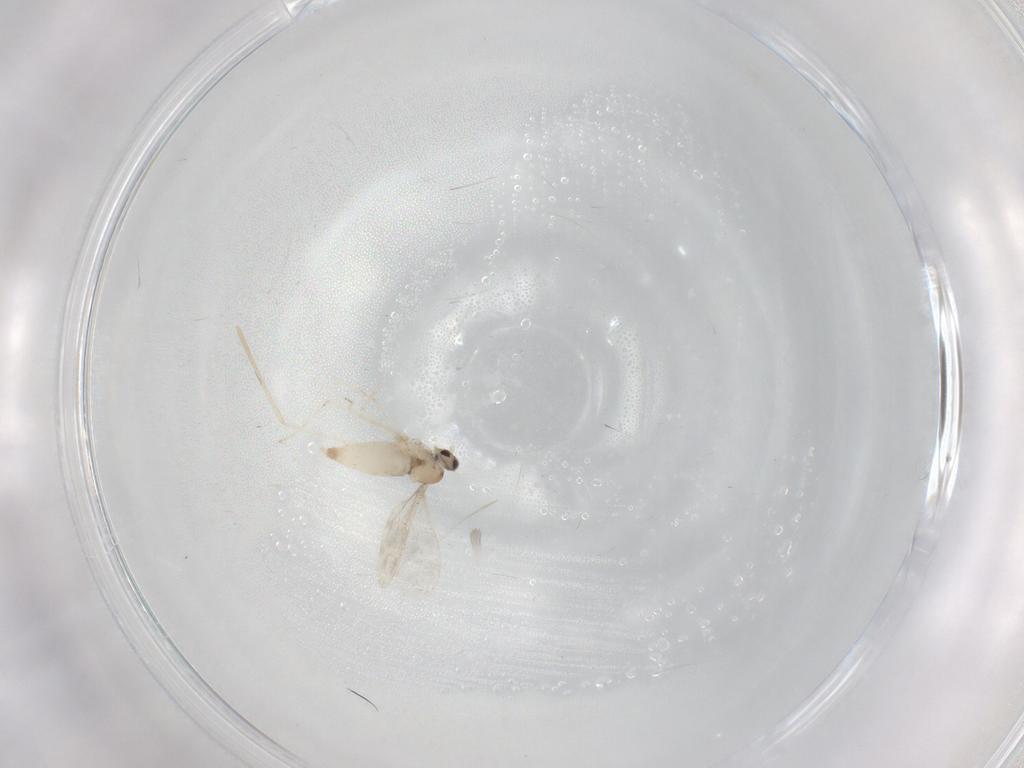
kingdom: Animalia
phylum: Arthropoda
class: Insecta
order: Diptera
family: Cecidomyiidae
